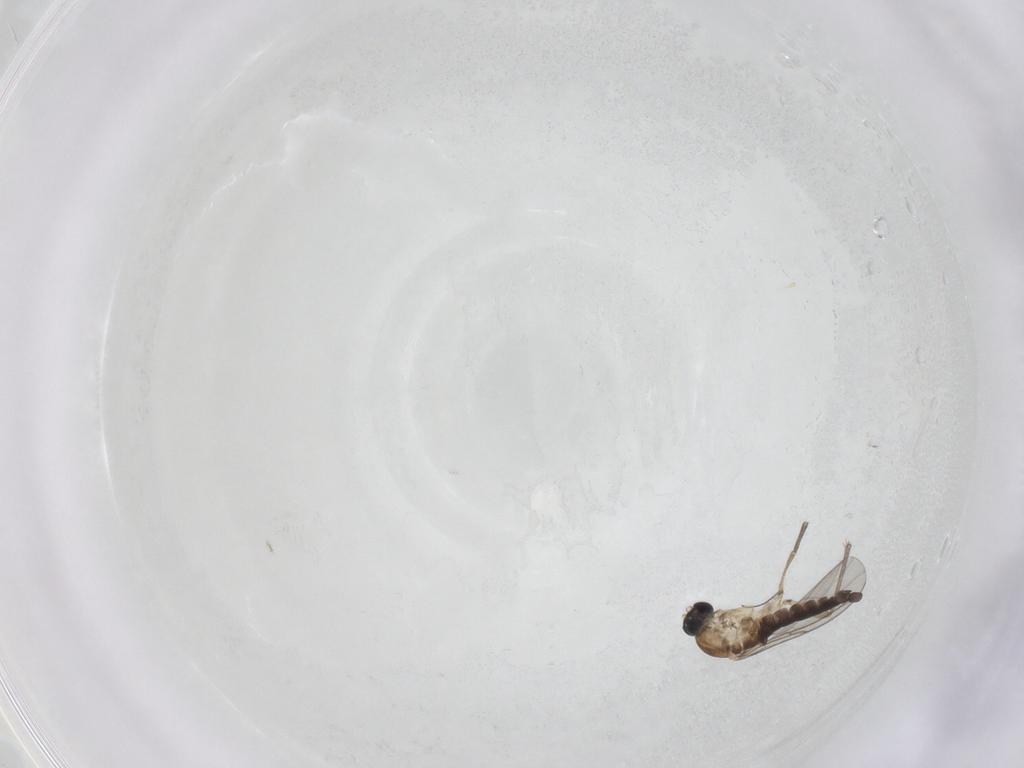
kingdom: Animalia
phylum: Arthropoda
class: Insecta
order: Diptera
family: Sciaridae
